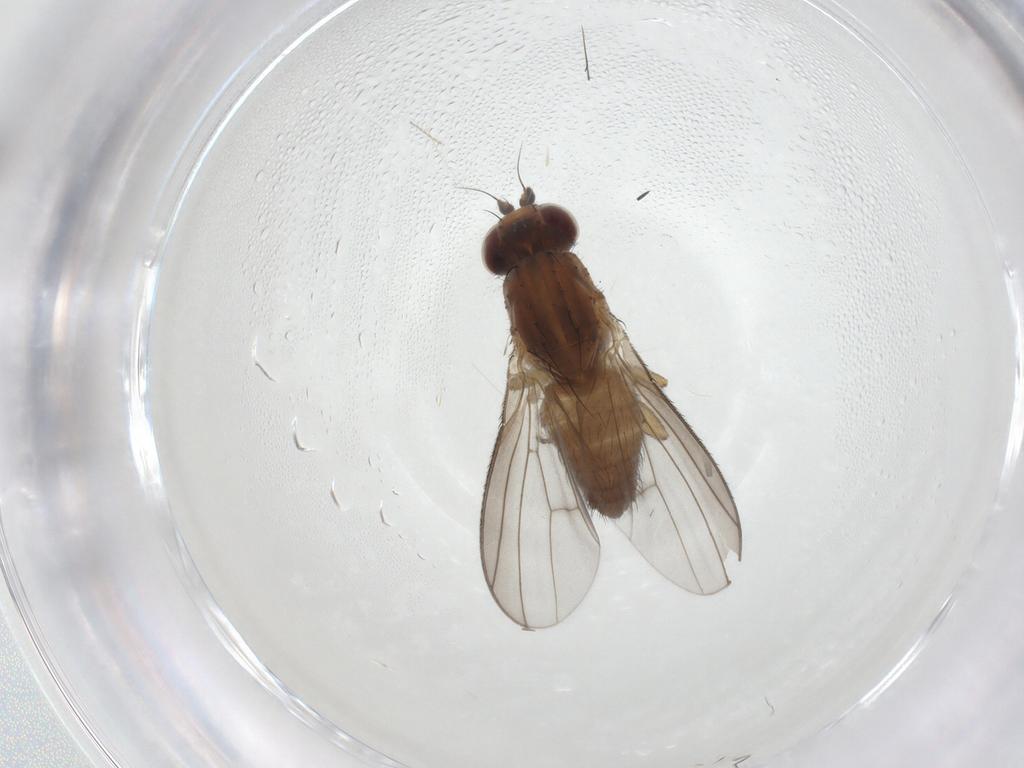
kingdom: Animalia
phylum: Arthropoda
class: Insecta
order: Diptera
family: Heleomyzidae
